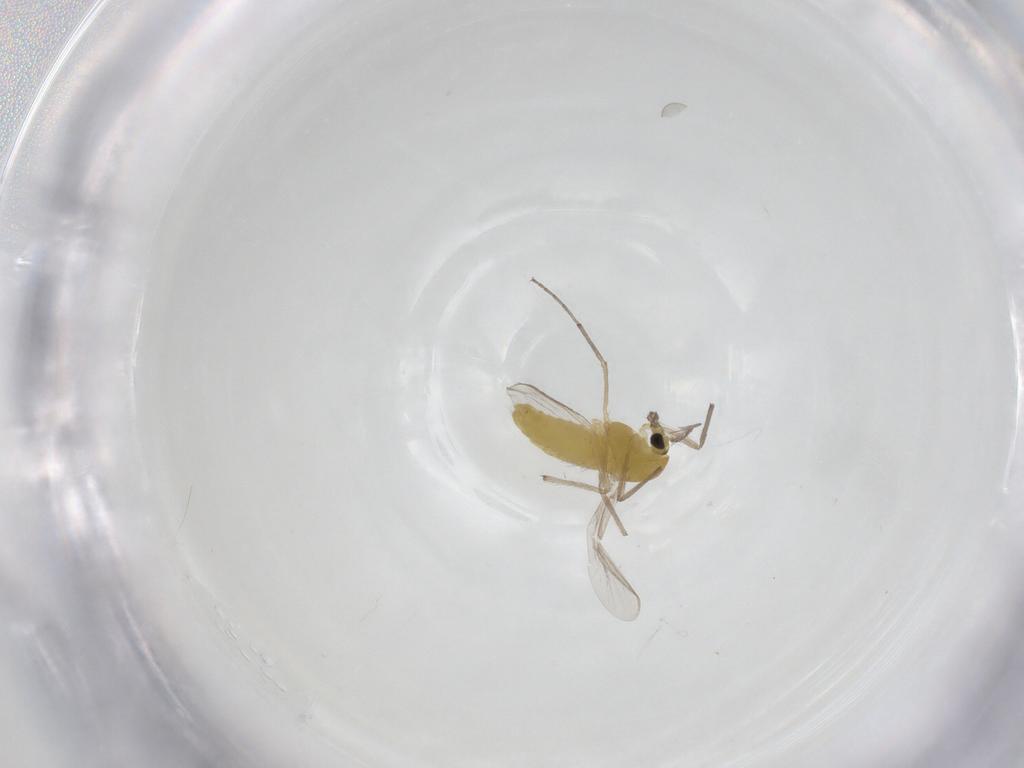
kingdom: Animalia
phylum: Arthropoda
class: Insecta
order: Diptera
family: Chironomidae
